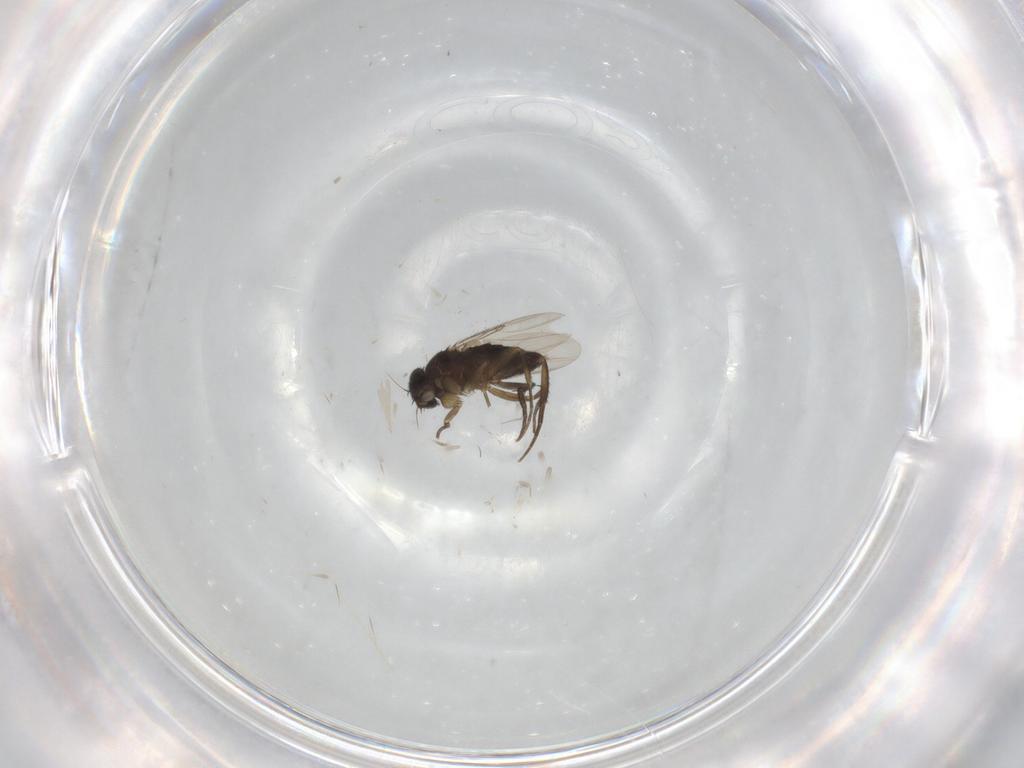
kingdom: Animalia
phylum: Arthropoda
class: Insecta
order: Diptera
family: Phoridae
